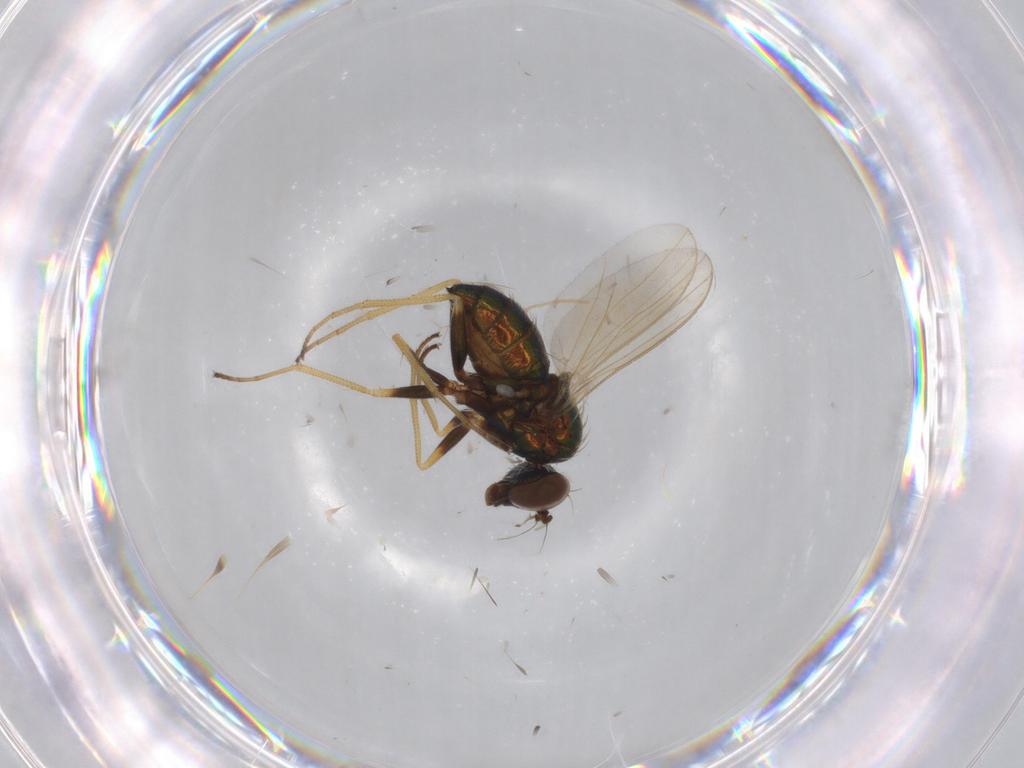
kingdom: Animalia
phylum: Arthropoda
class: Insecta
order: Diptera
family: Dolichopodidae
